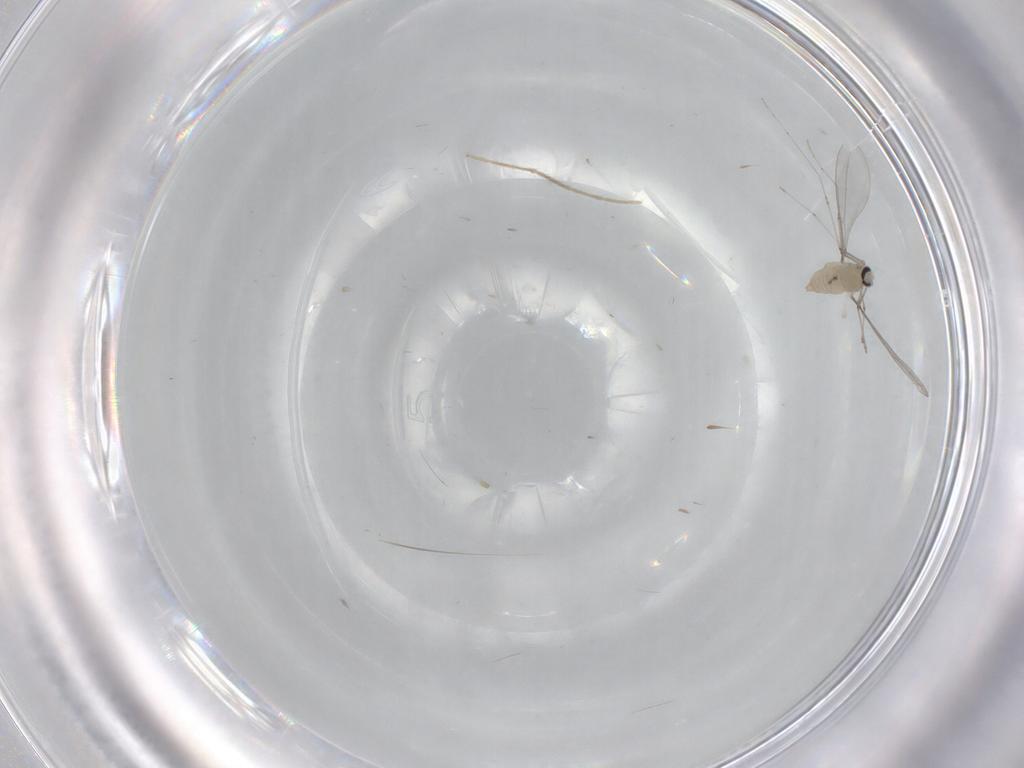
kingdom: Animalia
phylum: Arthropoda
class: Insecta
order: Diptera
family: Cecidomyiidae
